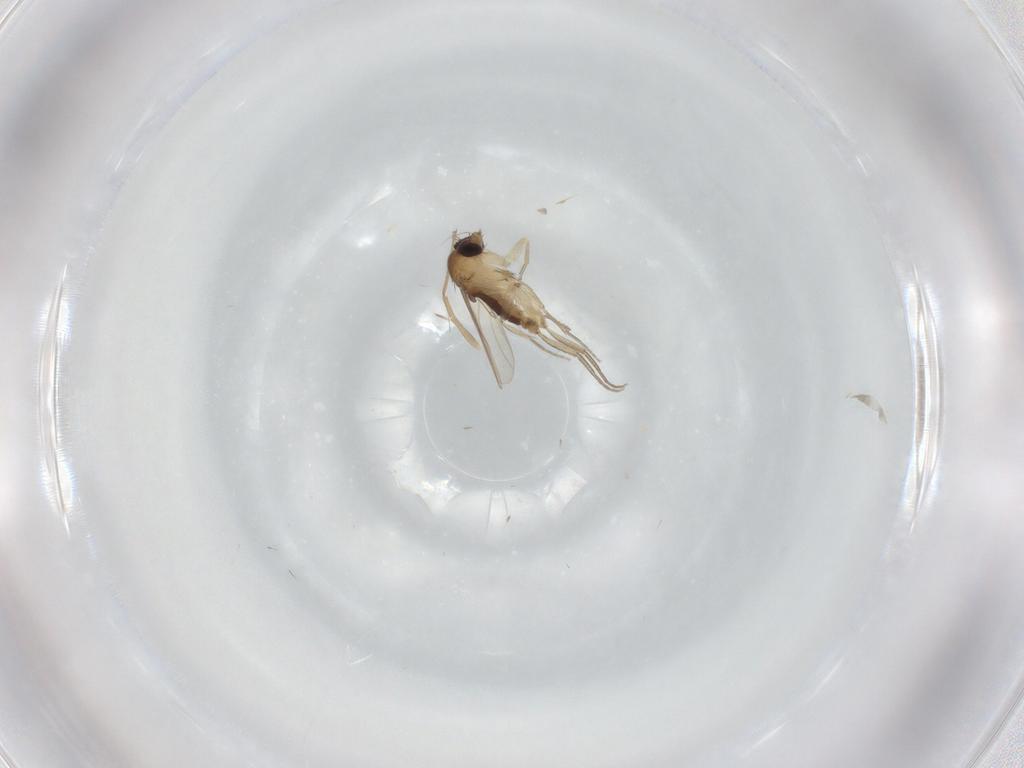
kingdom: Animalia
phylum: Arthropoda
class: Insecta
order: Diptera
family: Chironomidae
